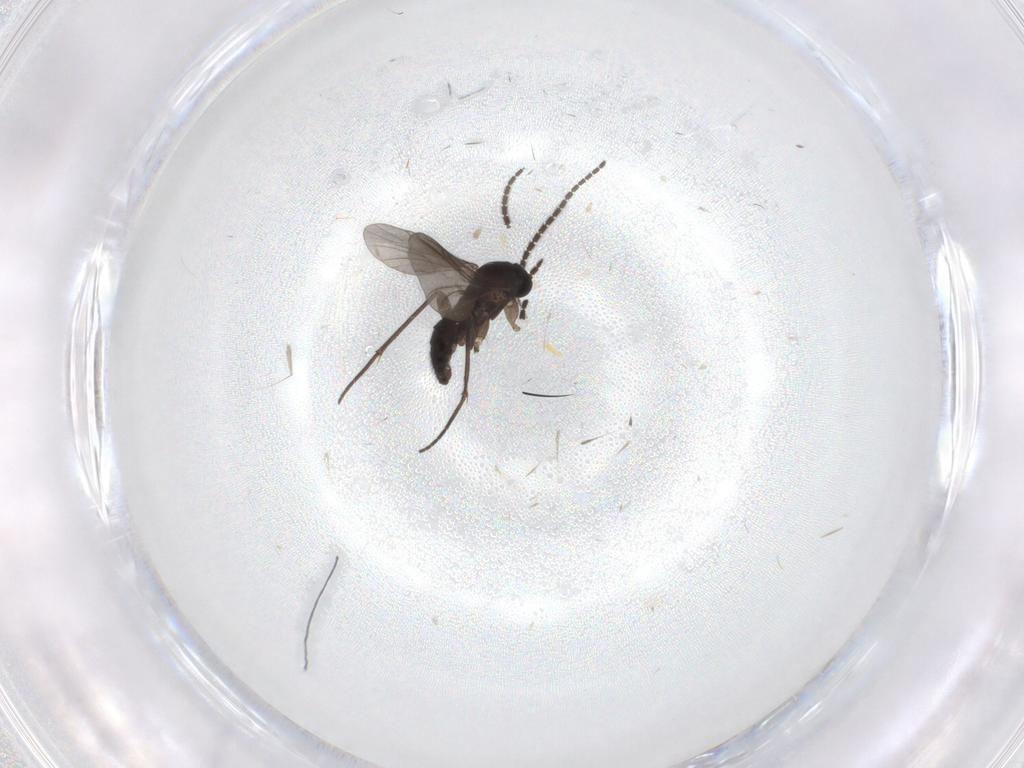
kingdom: Animalia
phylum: Arthropoda
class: Insecta
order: Diptera
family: Sciaridae
